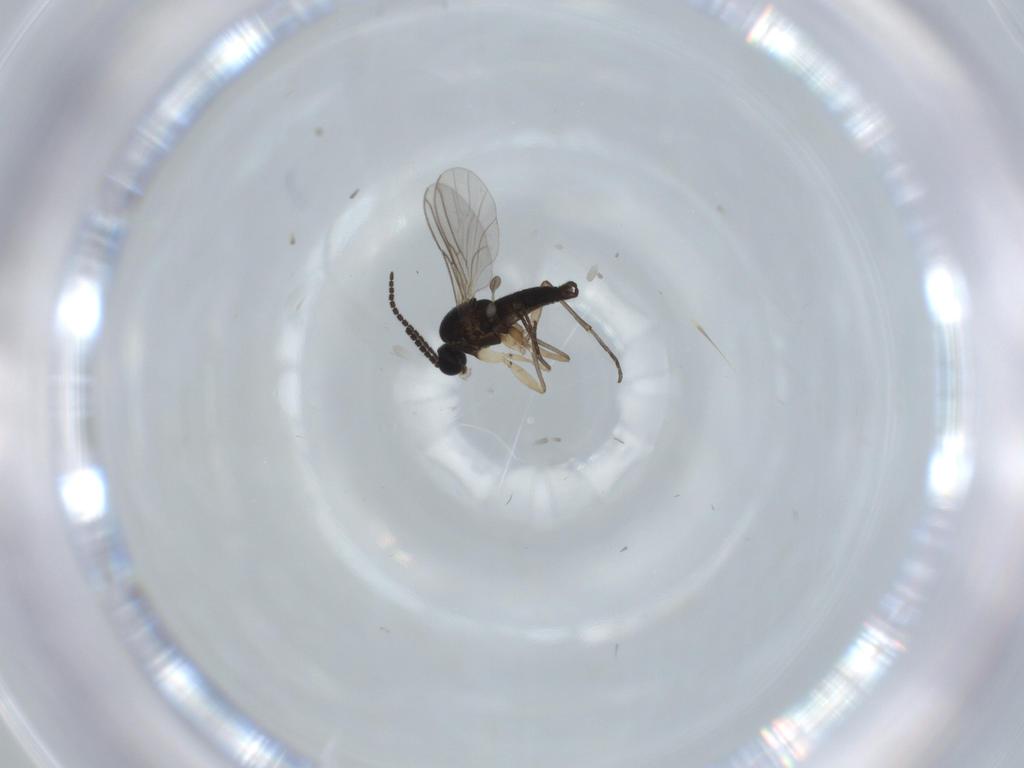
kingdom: Animalia
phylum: Arthropoda
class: Insecta
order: Diptera
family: Sciaridae
